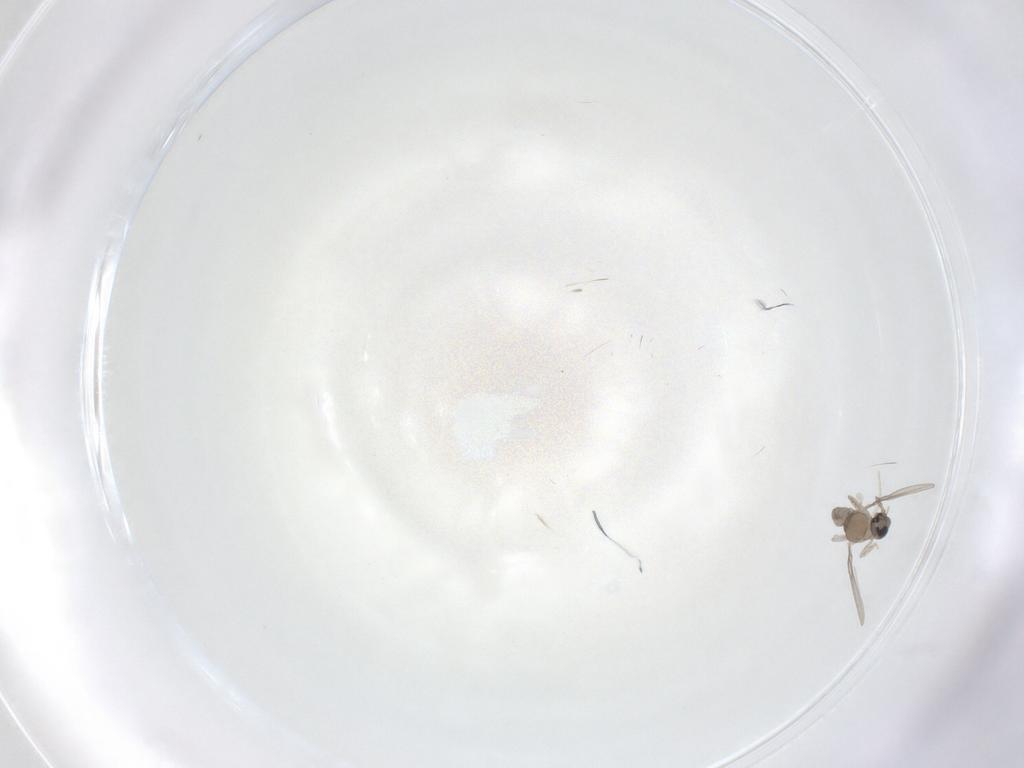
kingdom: Animalia
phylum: Arthropoda
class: Insecta
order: Diptera
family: Cecidomyiidae
